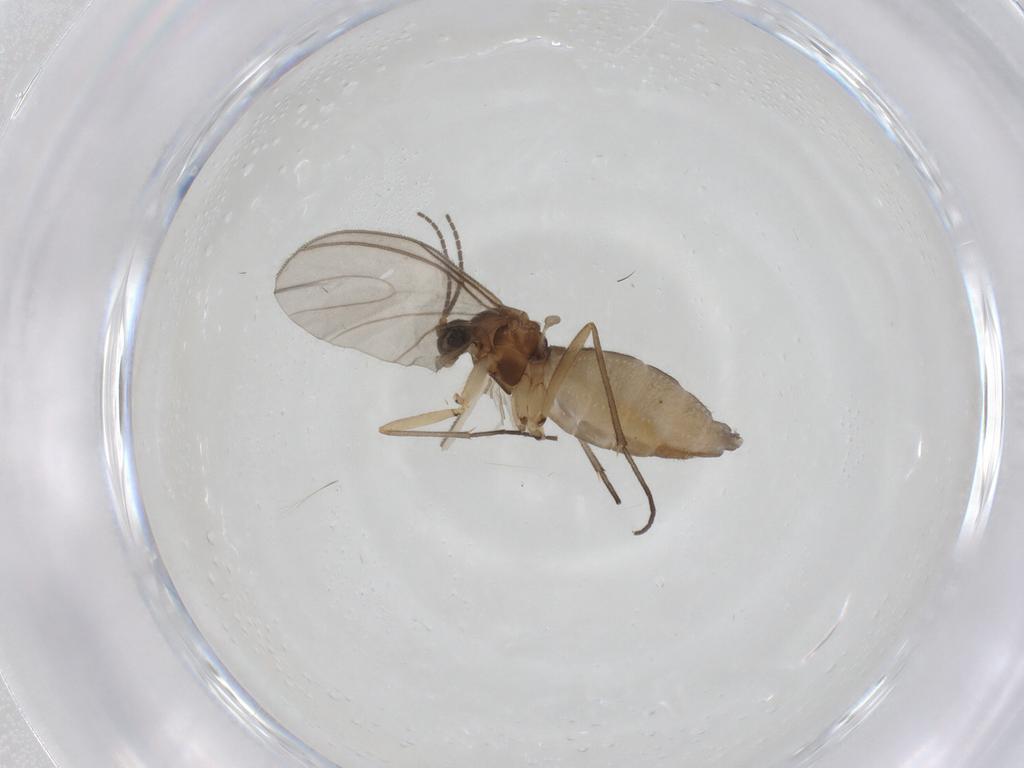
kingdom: Animalia
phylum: Arthropoda
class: Insecta
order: Diptera
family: Sciaridae
